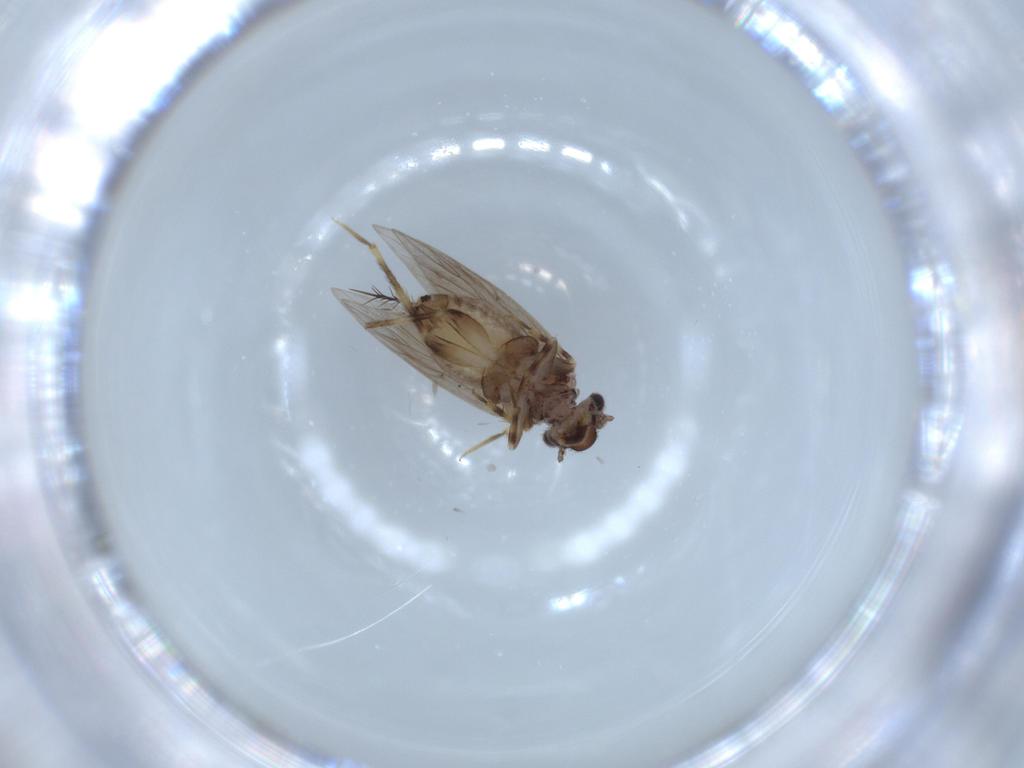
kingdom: Animalia
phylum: Arthropoda
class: Insecta
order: Psocodea
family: Lepidopsocidae
